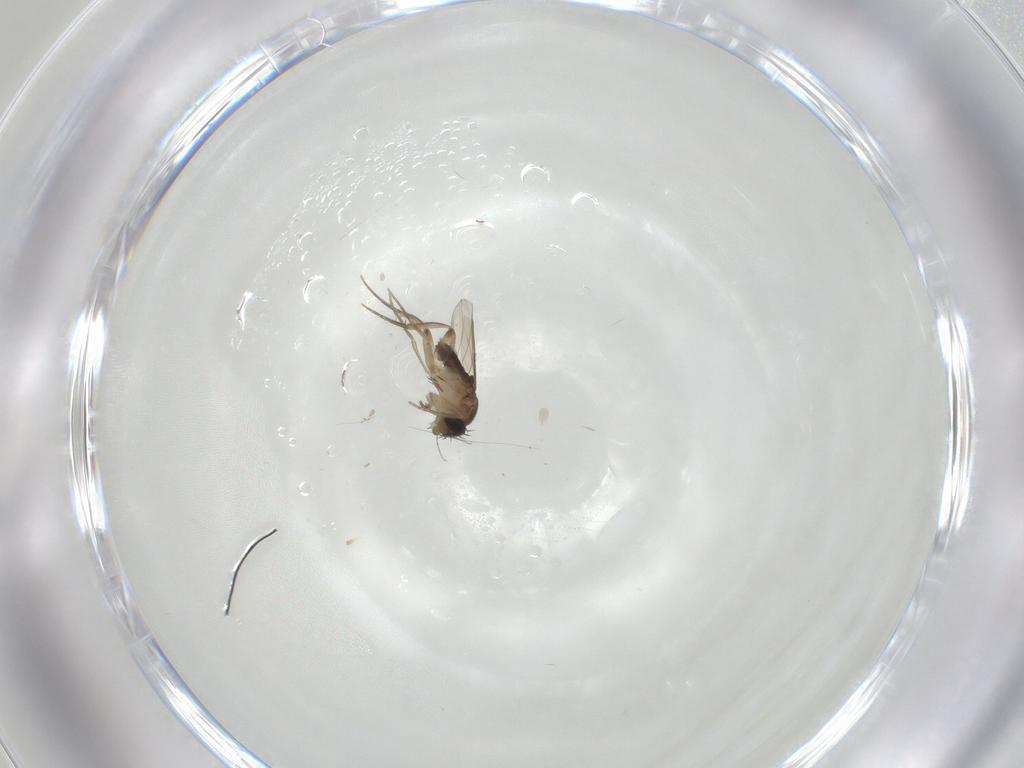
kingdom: Animalia
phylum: Arthropoda
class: Insecta
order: Diptera
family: Phoridae
